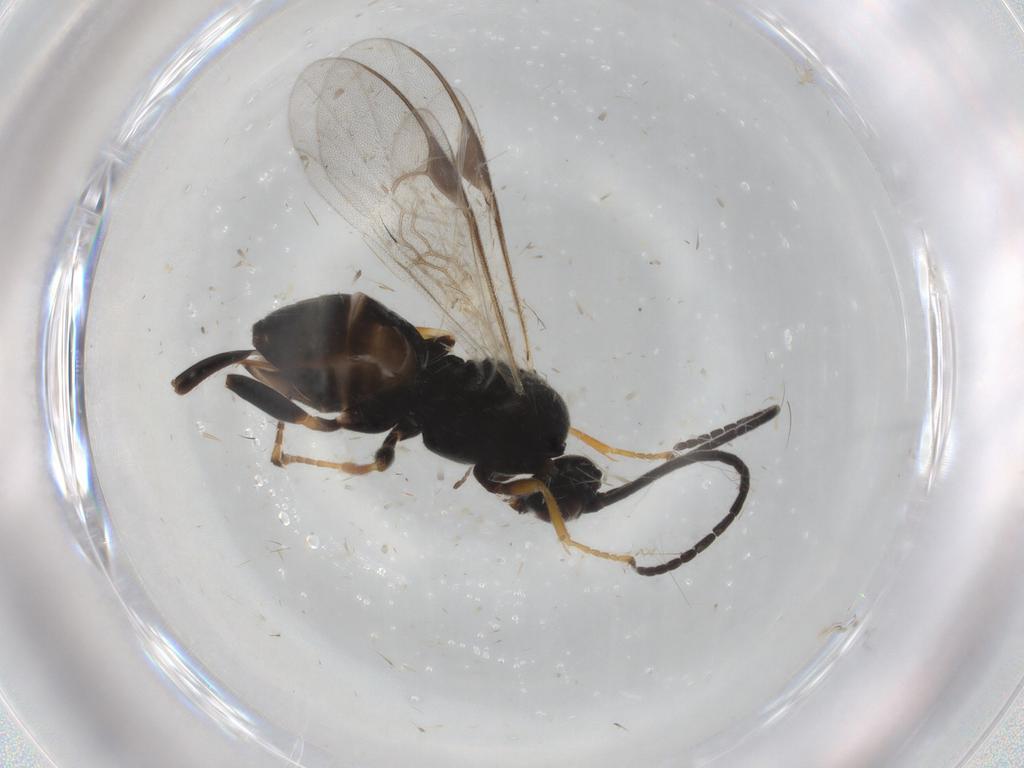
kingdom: Animalia
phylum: Arthropoda
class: Insecta
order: Hymenoptera
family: Braconidae
